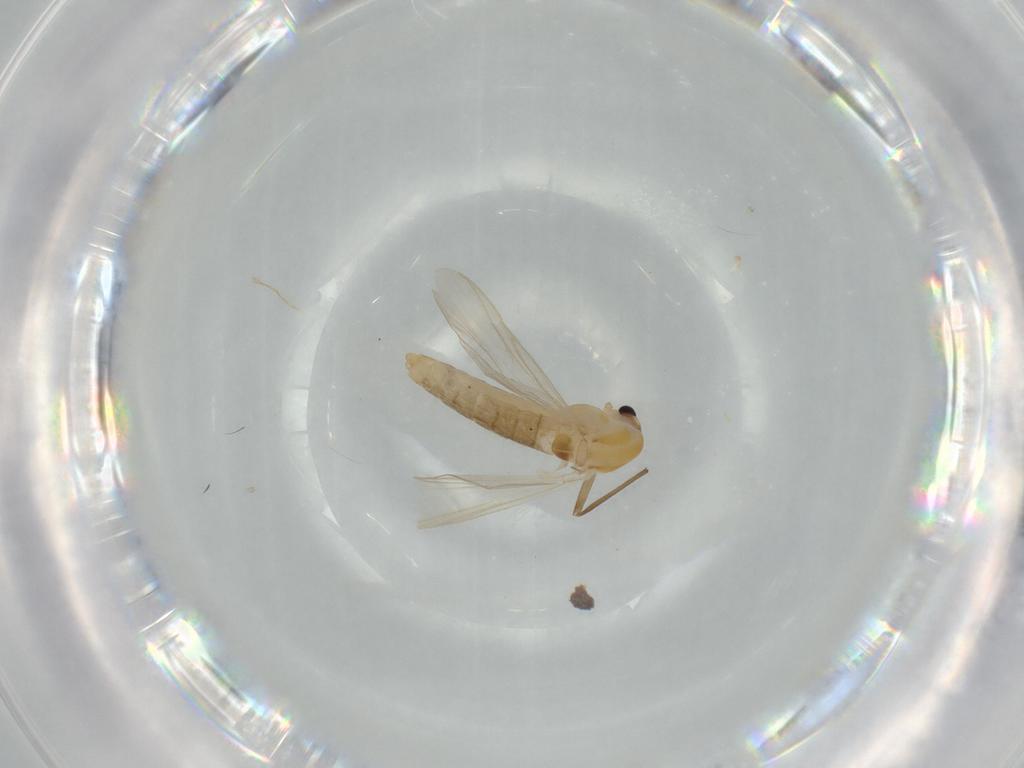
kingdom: Animalia
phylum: Arthropoda
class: Insecta
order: Diptera
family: Chironomidae
